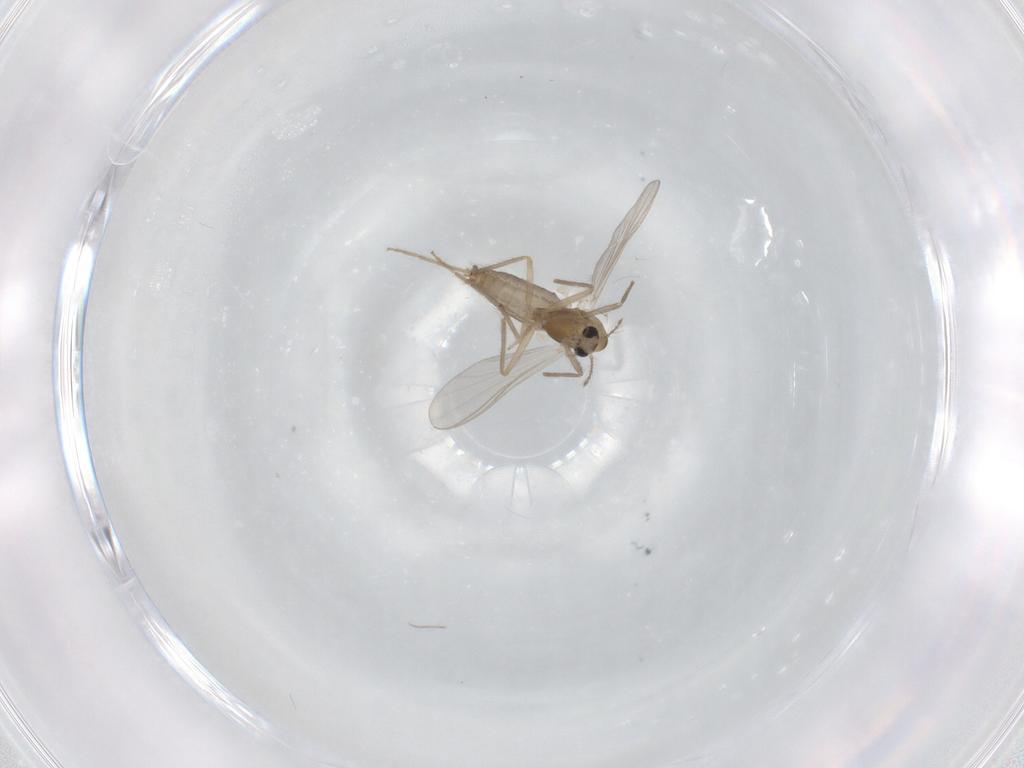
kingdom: Animalia
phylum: Arthropoda
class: Insecta
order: Diptera
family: Chironomidae
